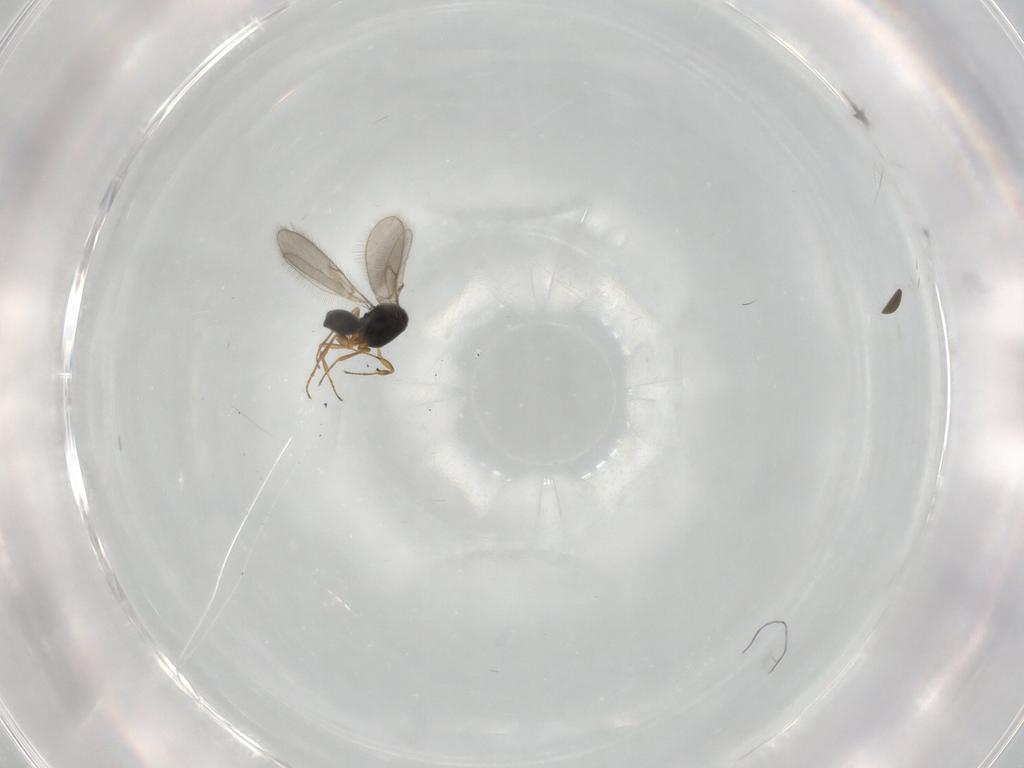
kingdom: Animalia
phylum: Arthropoda
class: Insecta
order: Hymenoptera
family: Scelionidae
